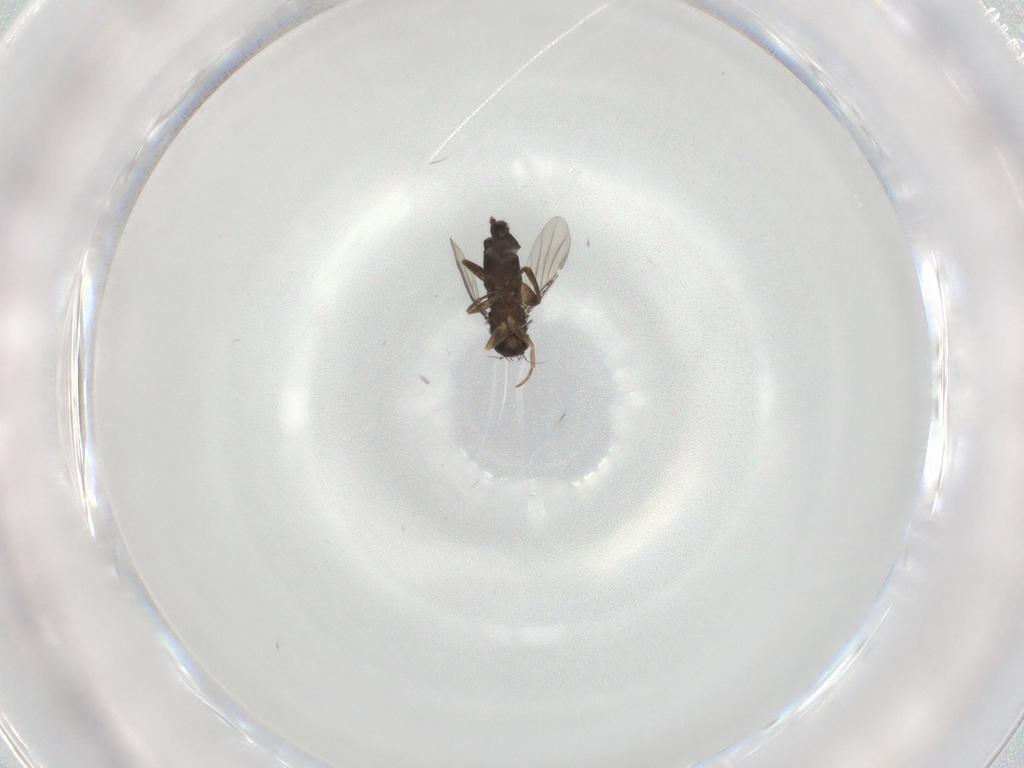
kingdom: Animalia
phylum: Arthropoda
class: Insecta
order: Diptera
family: Phoridae
